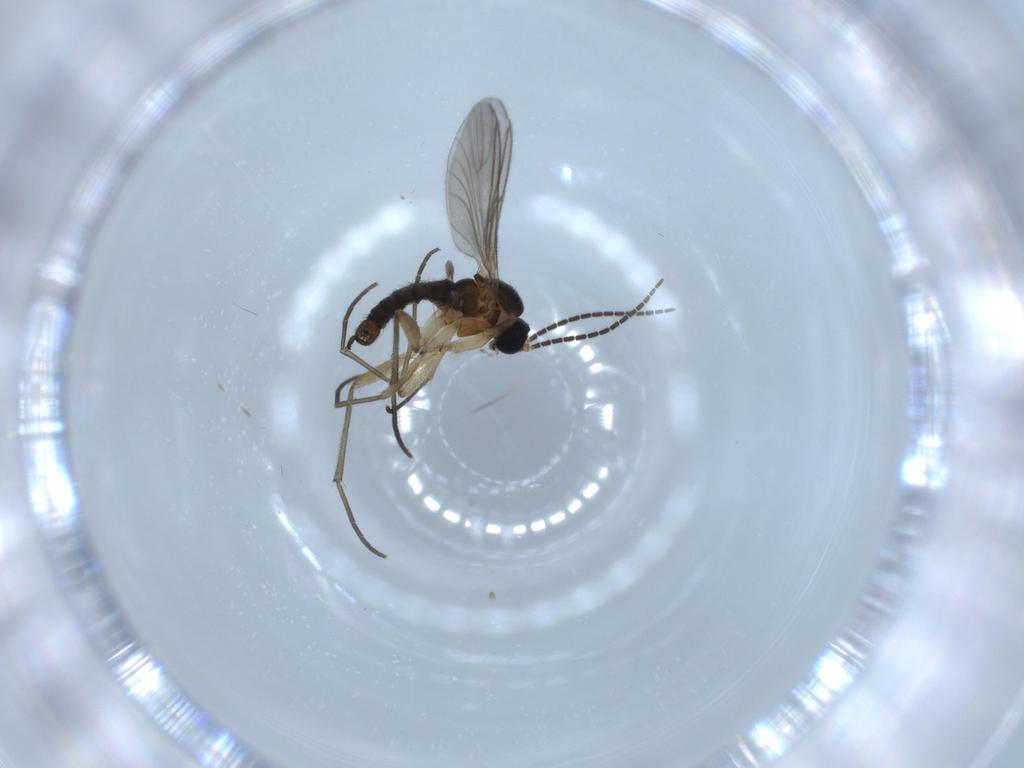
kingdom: Animalia
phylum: Arthropoda
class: Insecta
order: Diptera
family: Sciaridae
